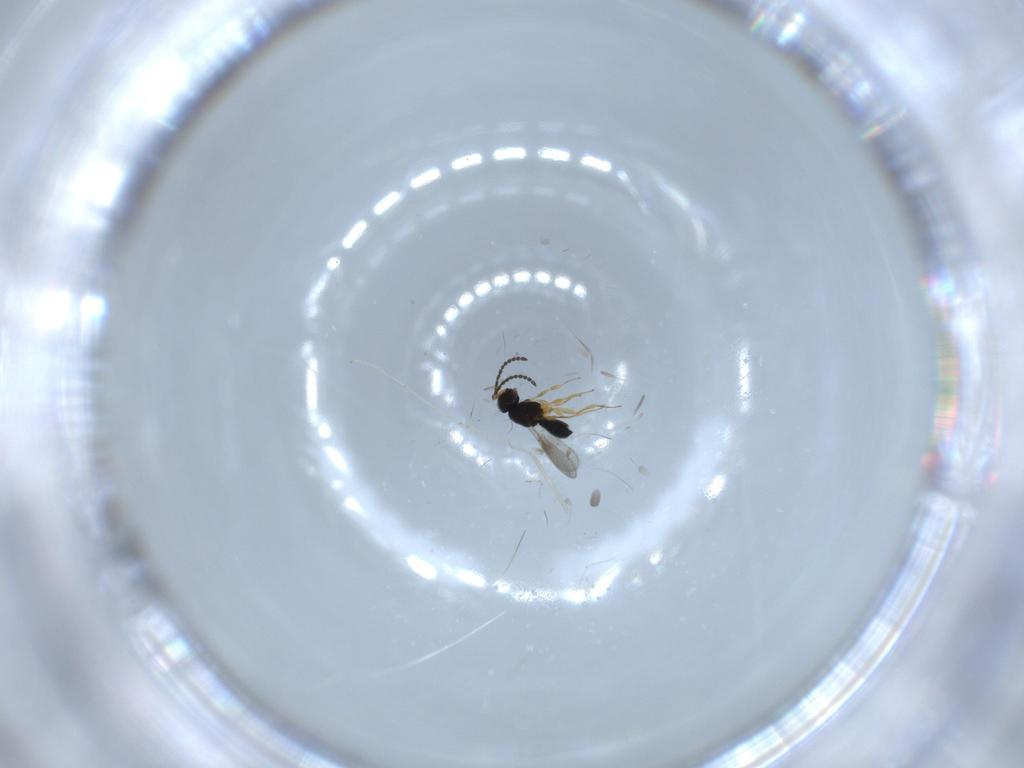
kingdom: Animalia
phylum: Arthropoda
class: Insecta
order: Hymenoptera
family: Scelionidae
